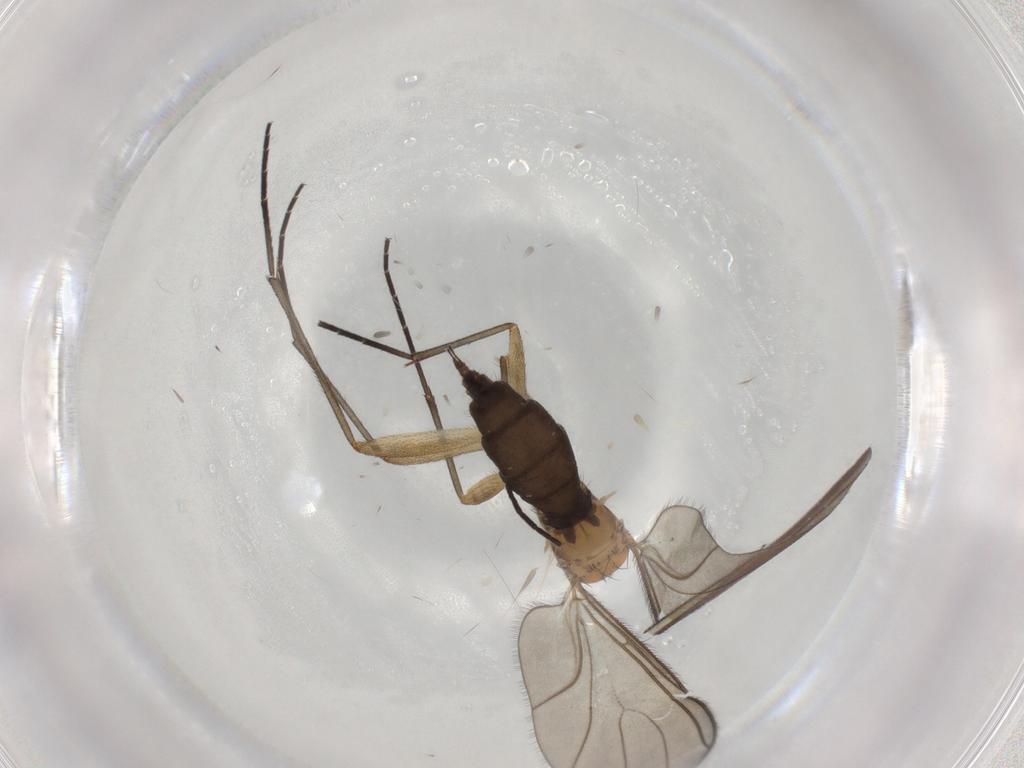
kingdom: Animalia
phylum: Arthropoda
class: Insecta
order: Diptera
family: Sciaridae
